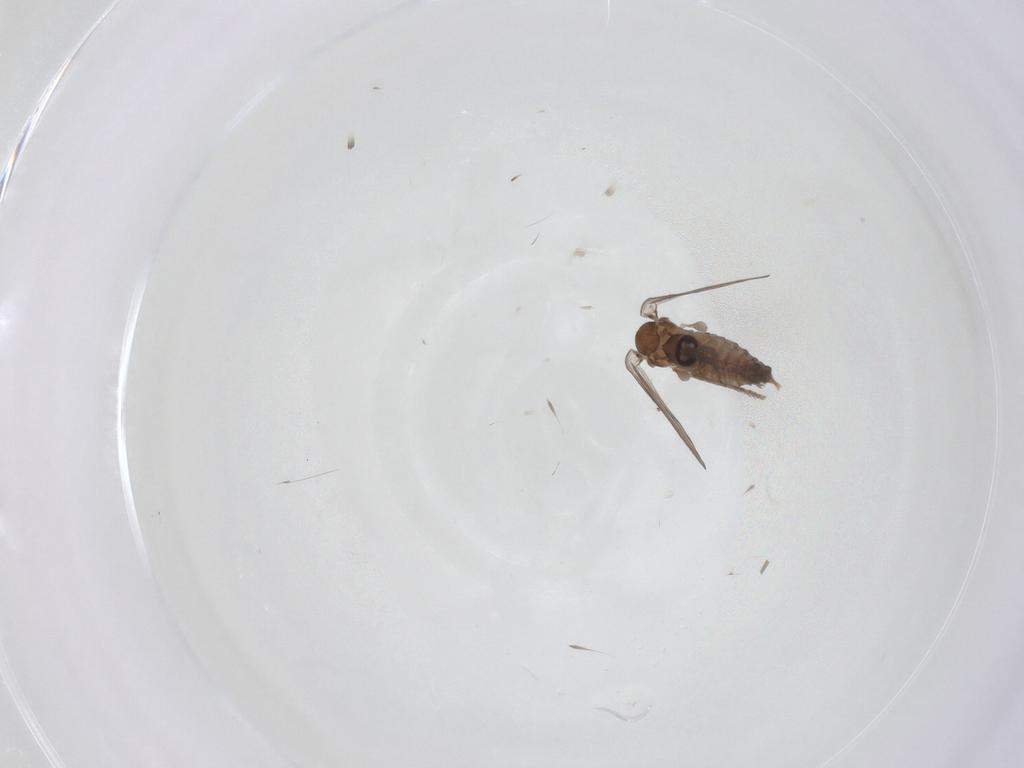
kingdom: Animalia
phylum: Arthropoda
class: Insecta
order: Diptera
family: Psychodidae
